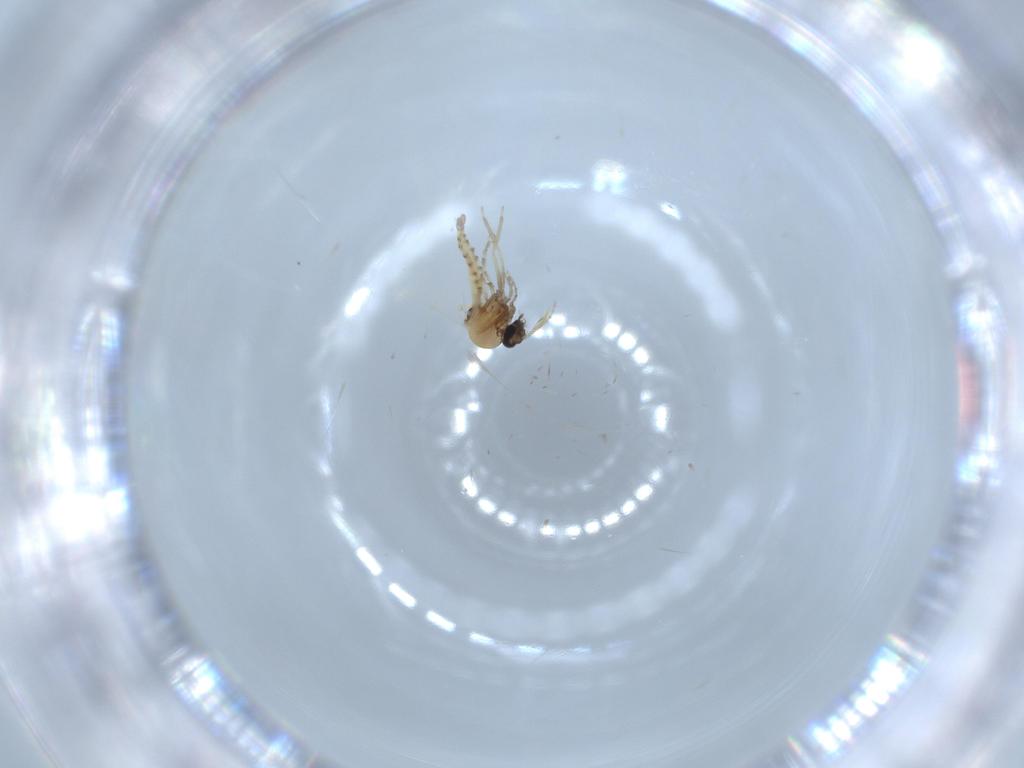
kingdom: Animalia
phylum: Arthropoda
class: Insecta
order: Diptera
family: Ceratopogonidae
